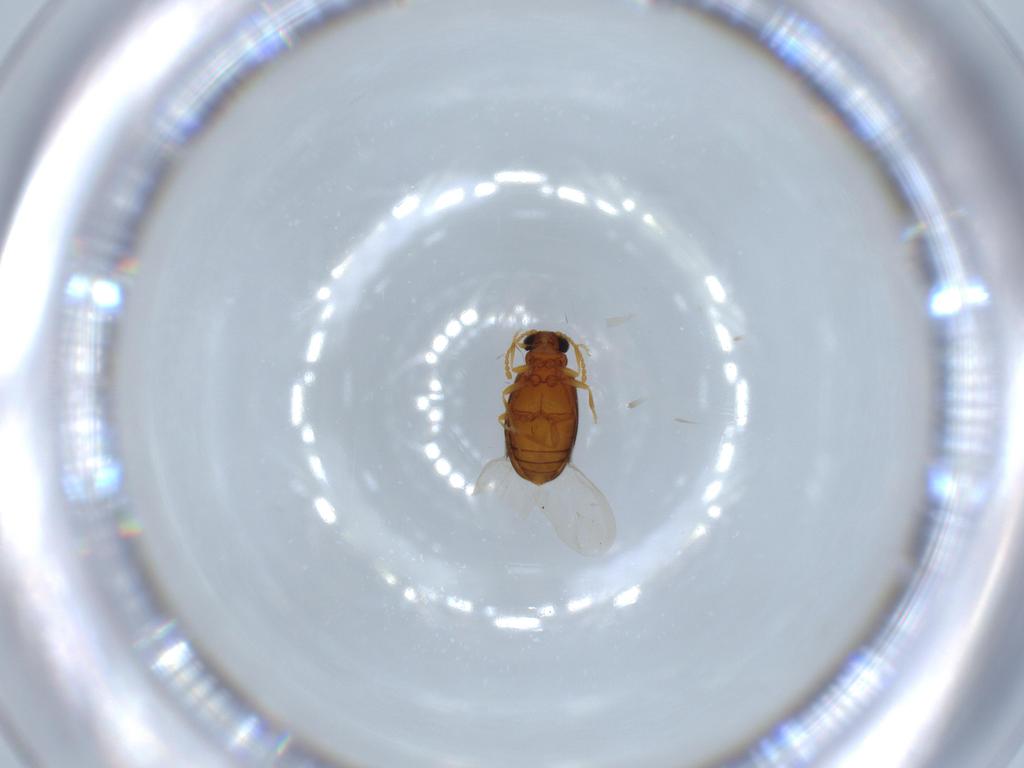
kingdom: Animalia
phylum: Arthropoda
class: Insecta
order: Coleoptera
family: Aderidae
